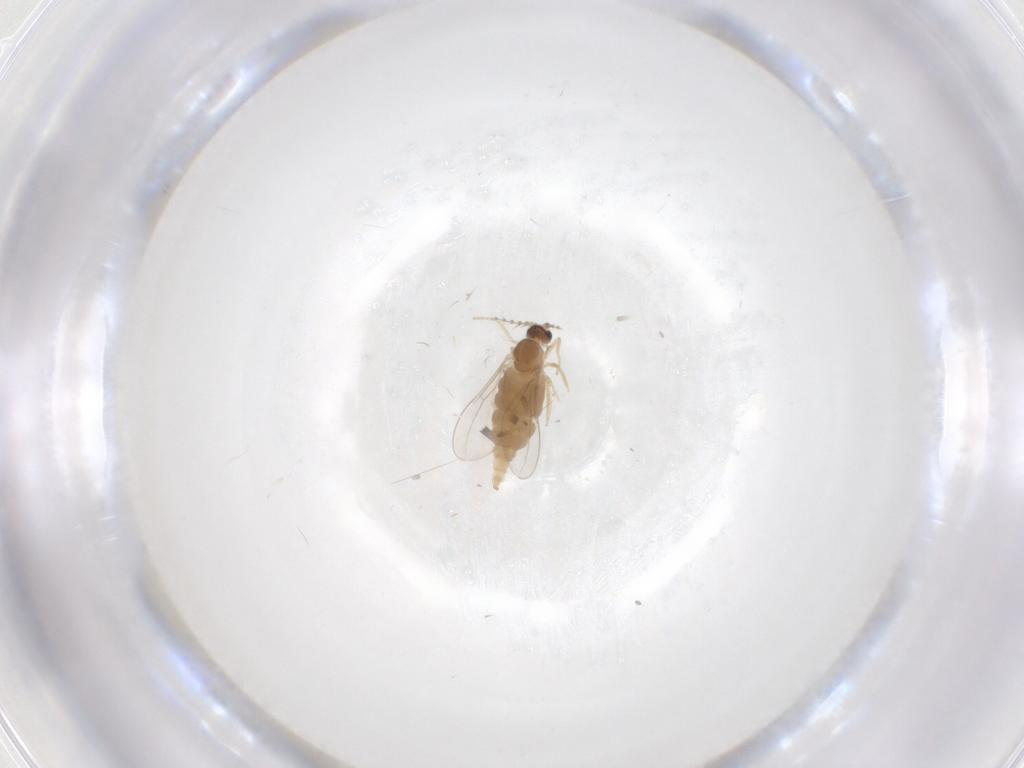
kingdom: Animalia
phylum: Arthropoda
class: Insecta
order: Diptera
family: Cecidomyiidae
